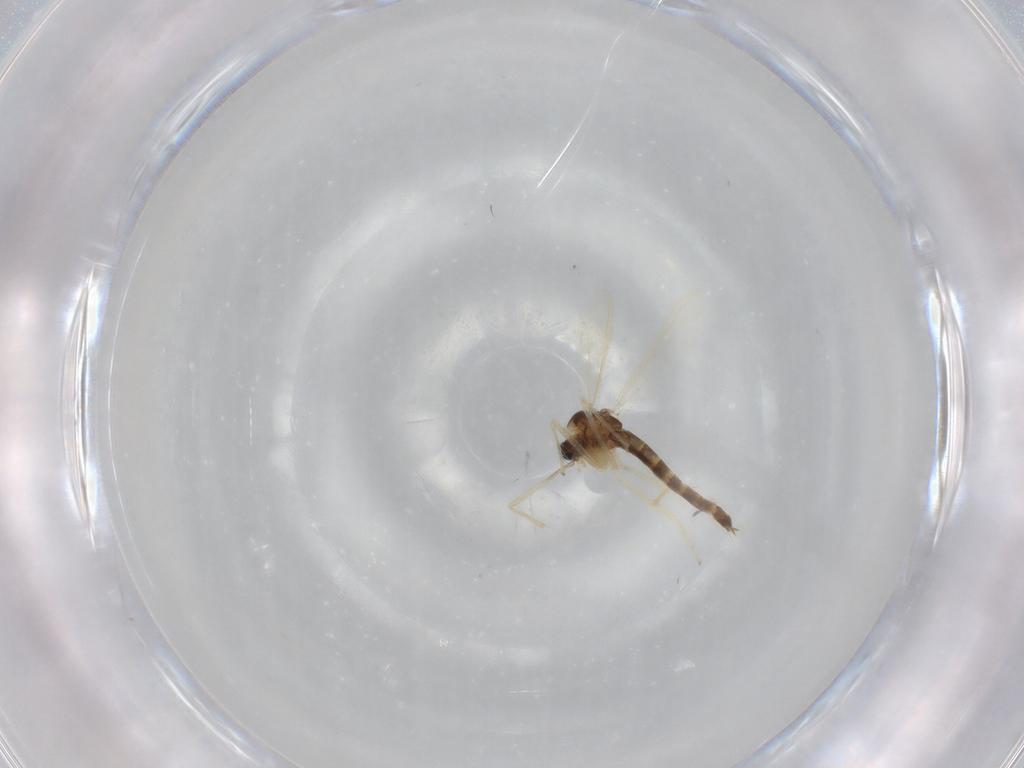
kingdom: Animalia
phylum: Arthropoda
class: Insecta
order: Diptera
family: Chironomidae
